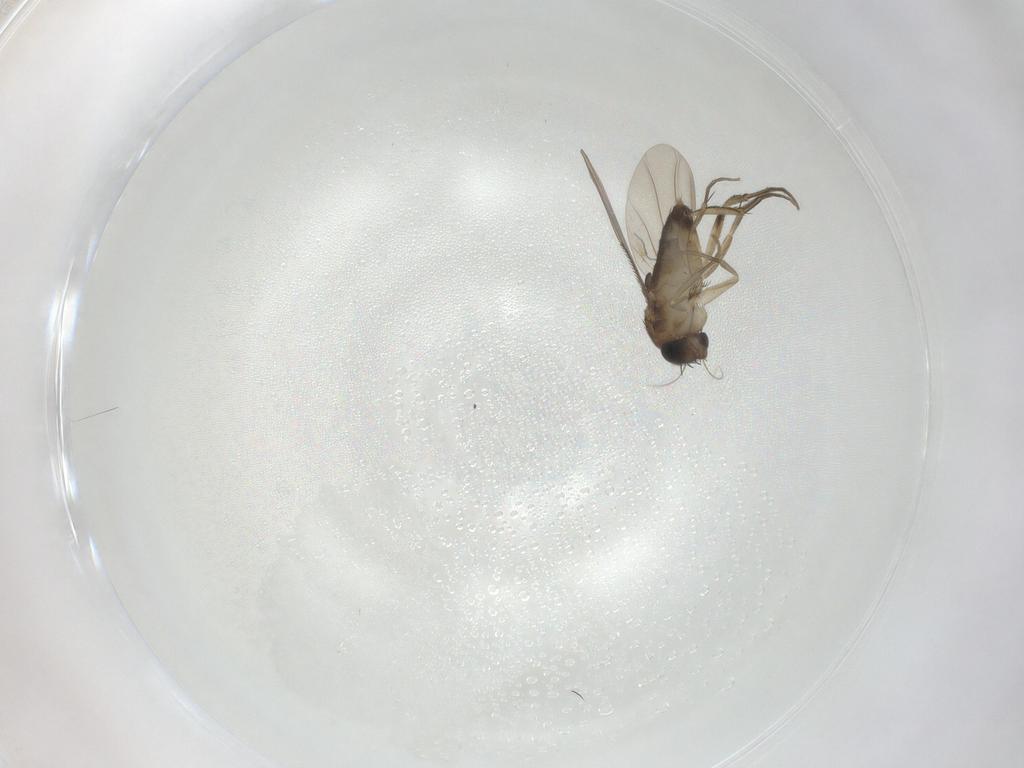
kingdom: Animalia
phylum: Arthropoda
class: Insecta
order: Diptera
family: Phoridae
